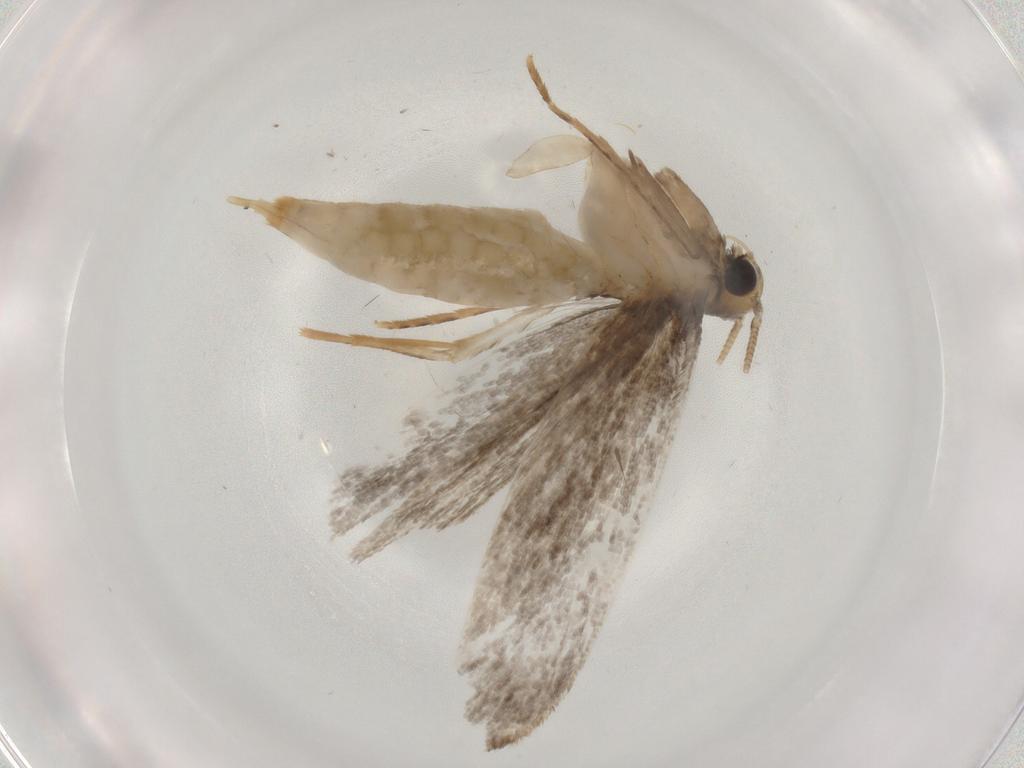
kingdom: Animalia
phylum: Arthropoda
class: Insecta
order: Lepidoptera
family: Tineidae
